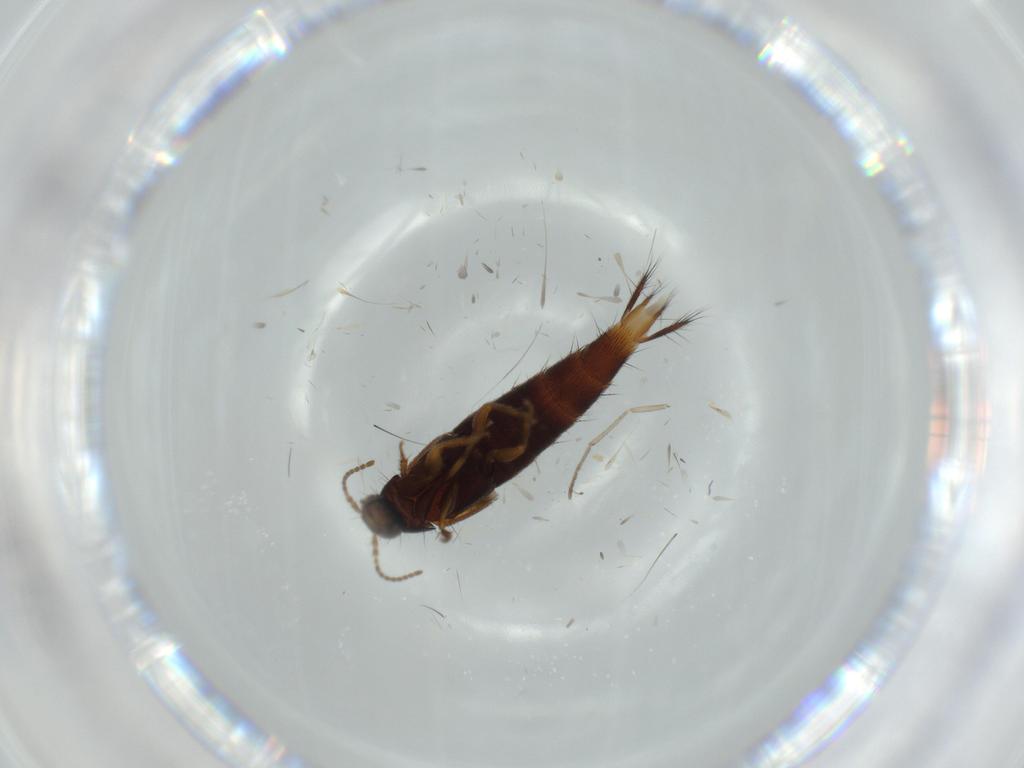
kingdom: Animalia
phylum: Arthropoda
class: Insecta
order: Coleoptera
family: Staphylinidae
